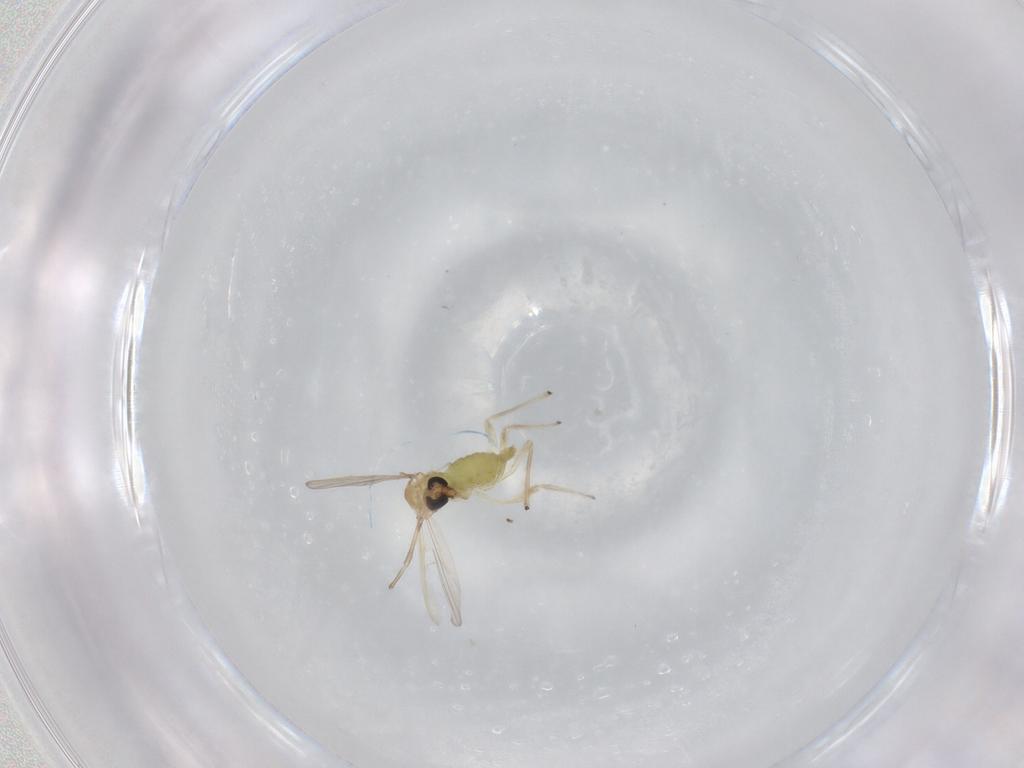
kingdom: Animalia
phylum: Arthropoda
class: Insecta
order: Diptera
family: Chironomidae
